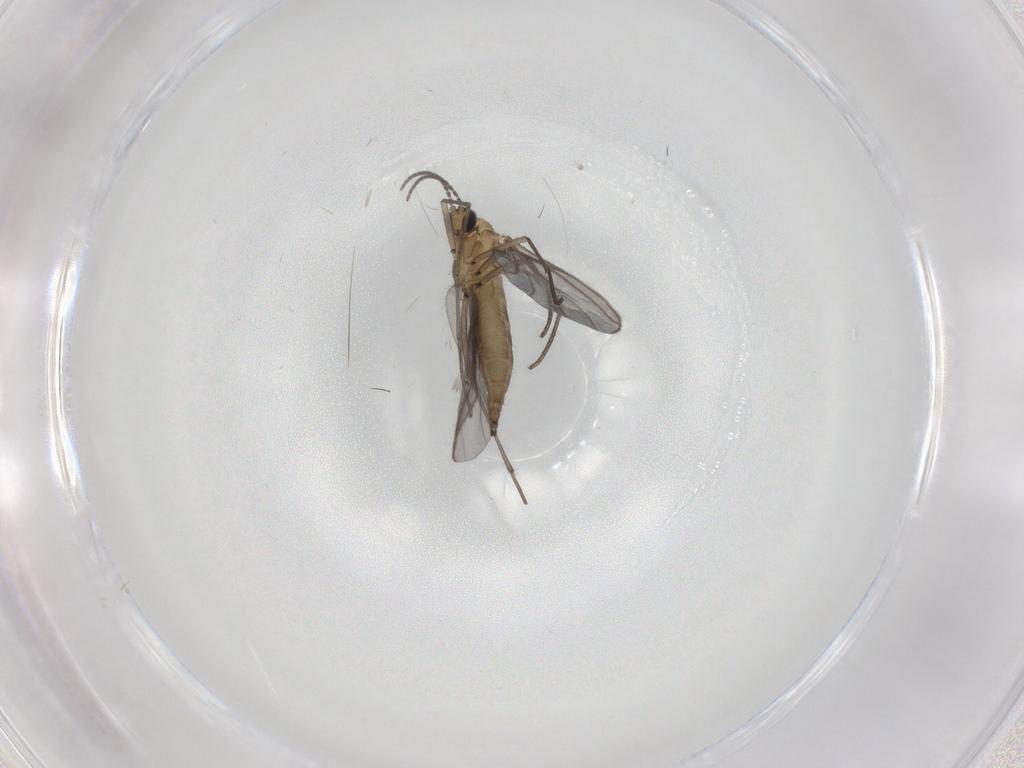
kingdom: Animalia
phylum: Arthropoda
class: Insecta
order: Diptera
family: Sciaridae
